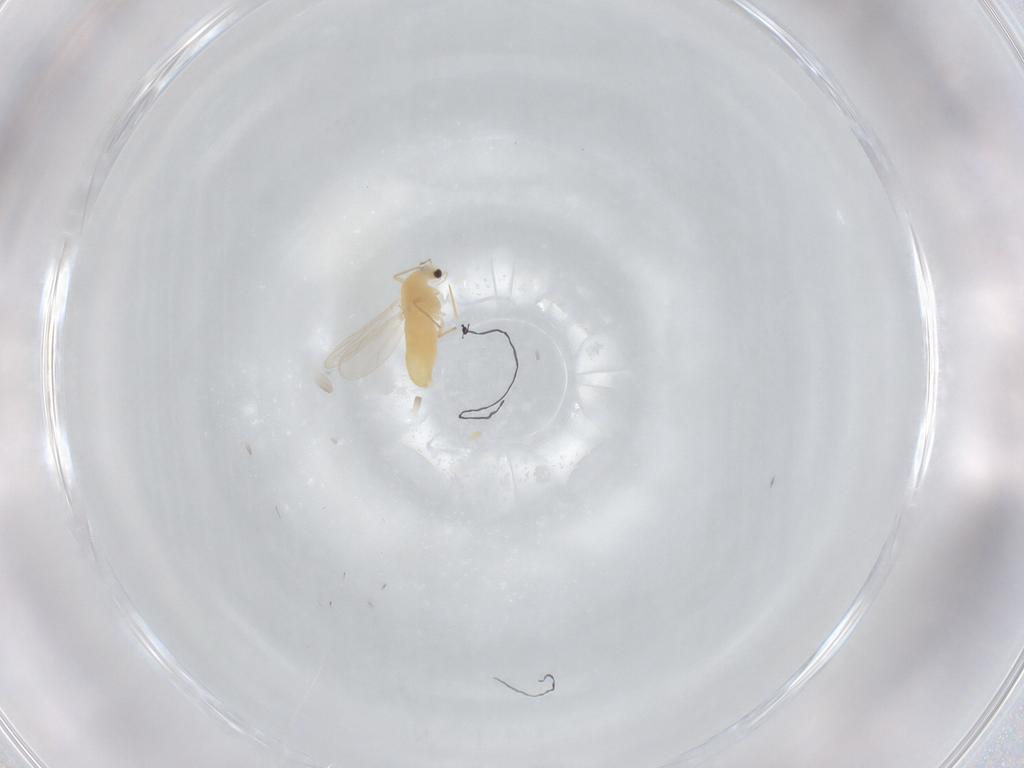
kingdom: Animalia
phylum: Arthropoda
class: Insecta
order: Diptera
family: Chironomidae
